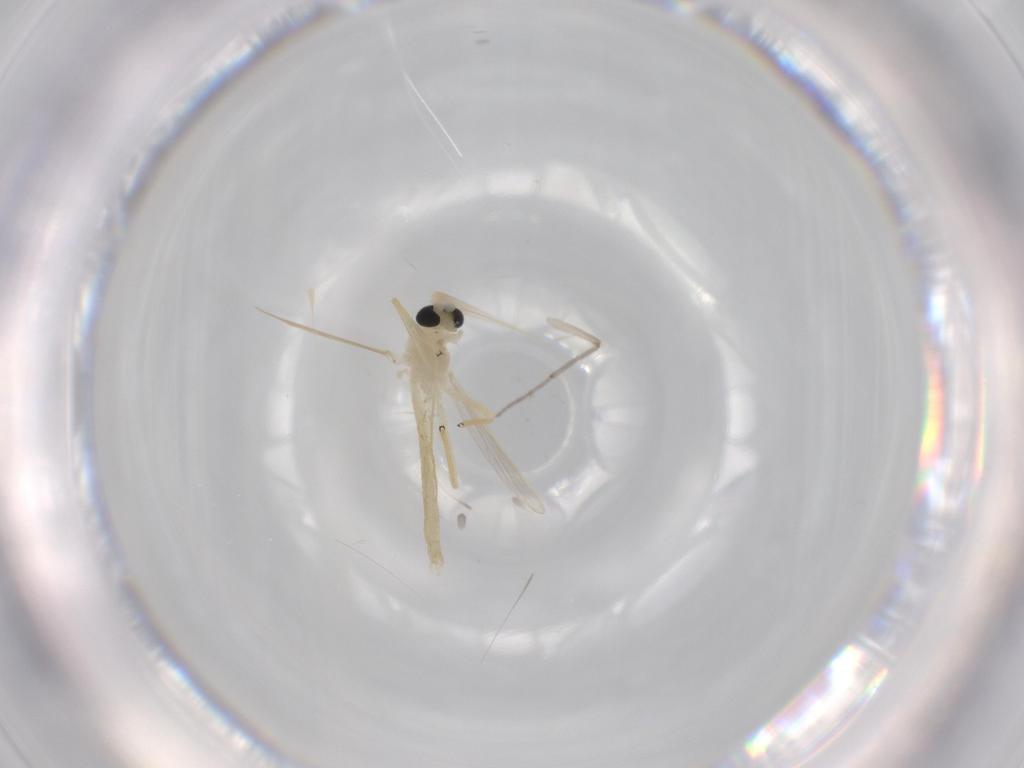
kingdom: Animalia
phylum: Arthropoda
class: Insecta
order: Diptera
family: Chironomidae
